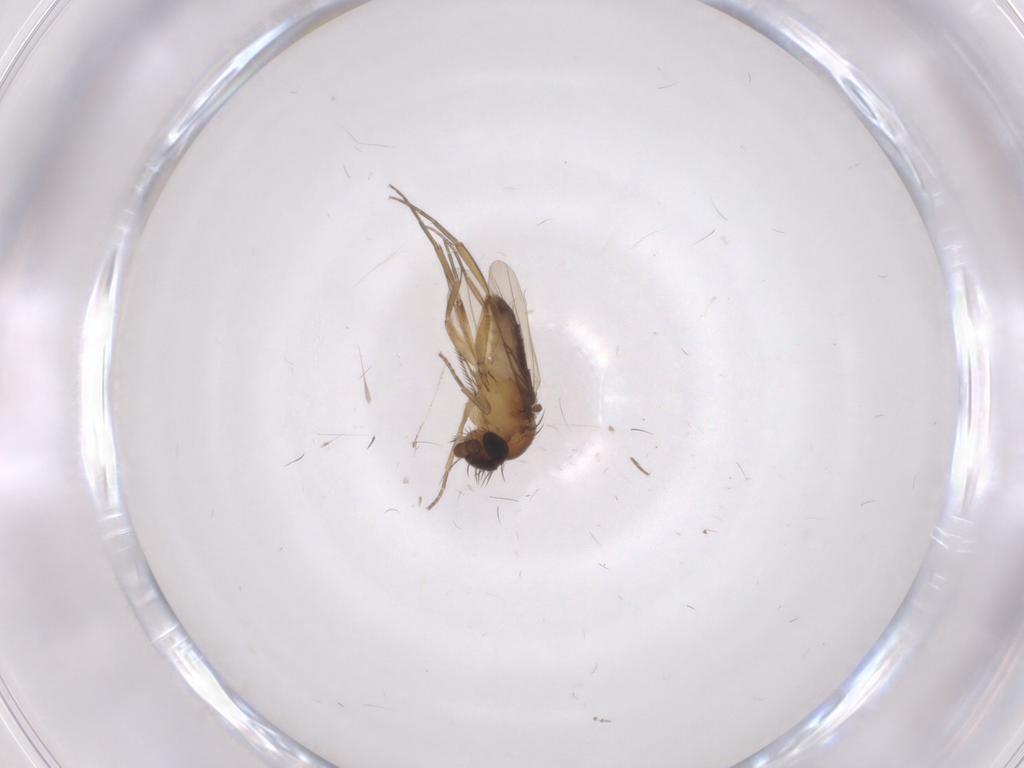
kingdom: Animalia
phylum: Arthropoda
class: Insecta
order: Diptera
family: Phoridae
